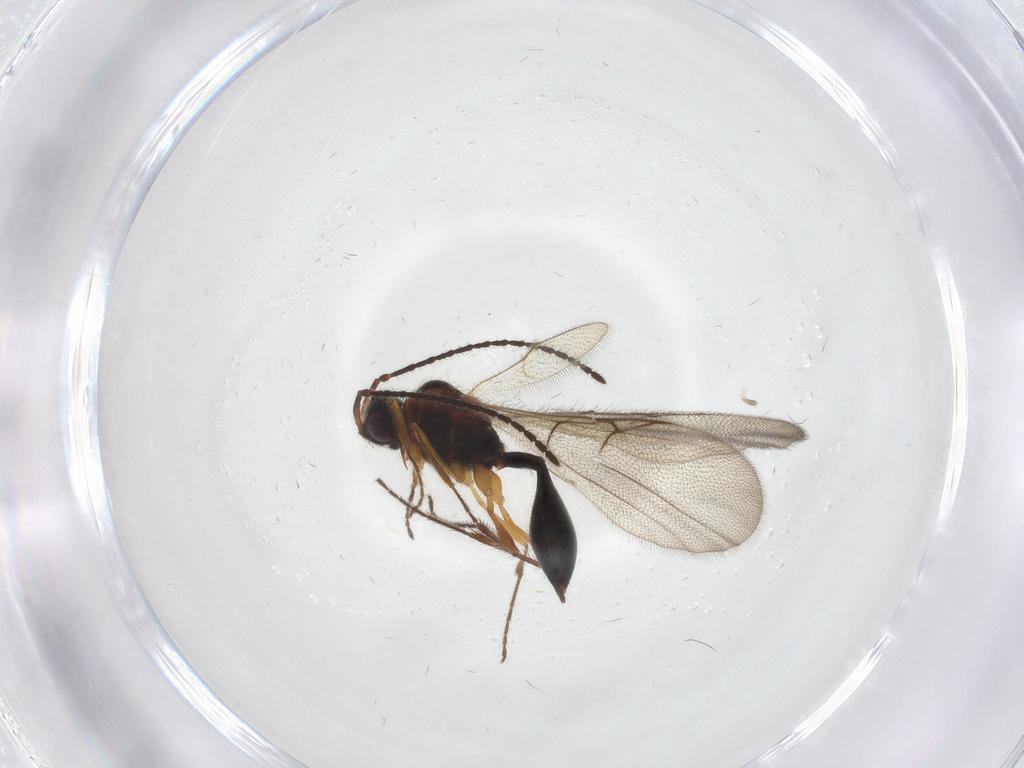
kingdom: Animalia
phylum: Arthropoda
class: Insecta
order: Hymenoptera
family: Diapriidae
